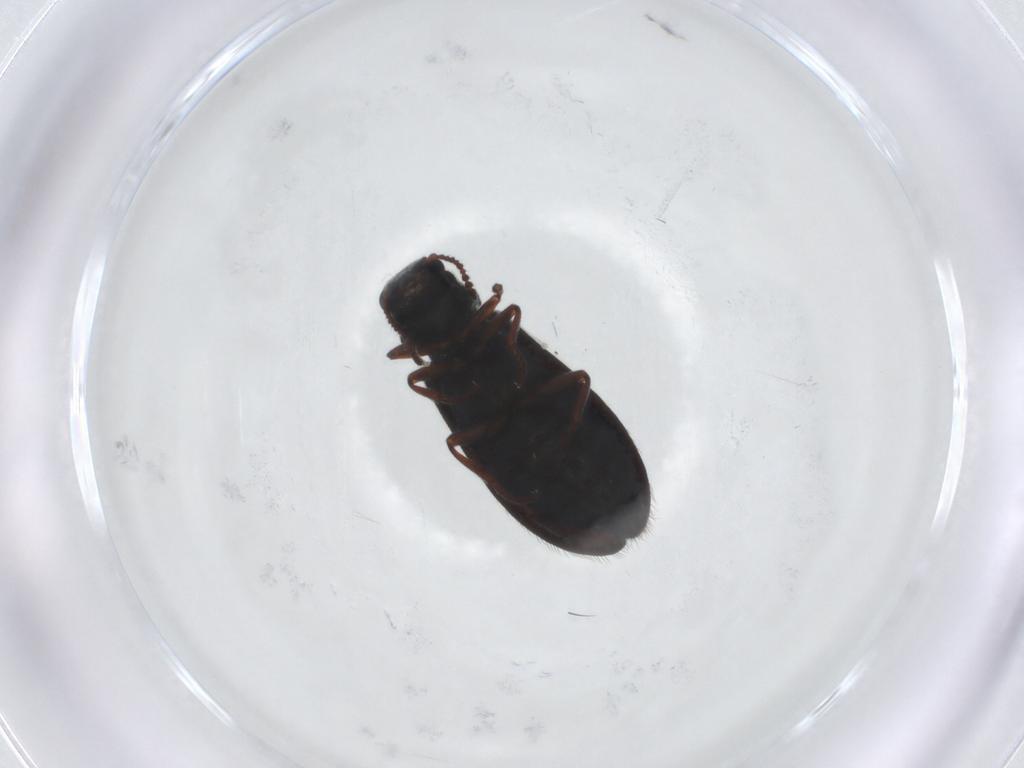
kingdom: Animalia
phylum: Arthropoda
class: Insecta
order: Coleoptera
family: Melyridae
